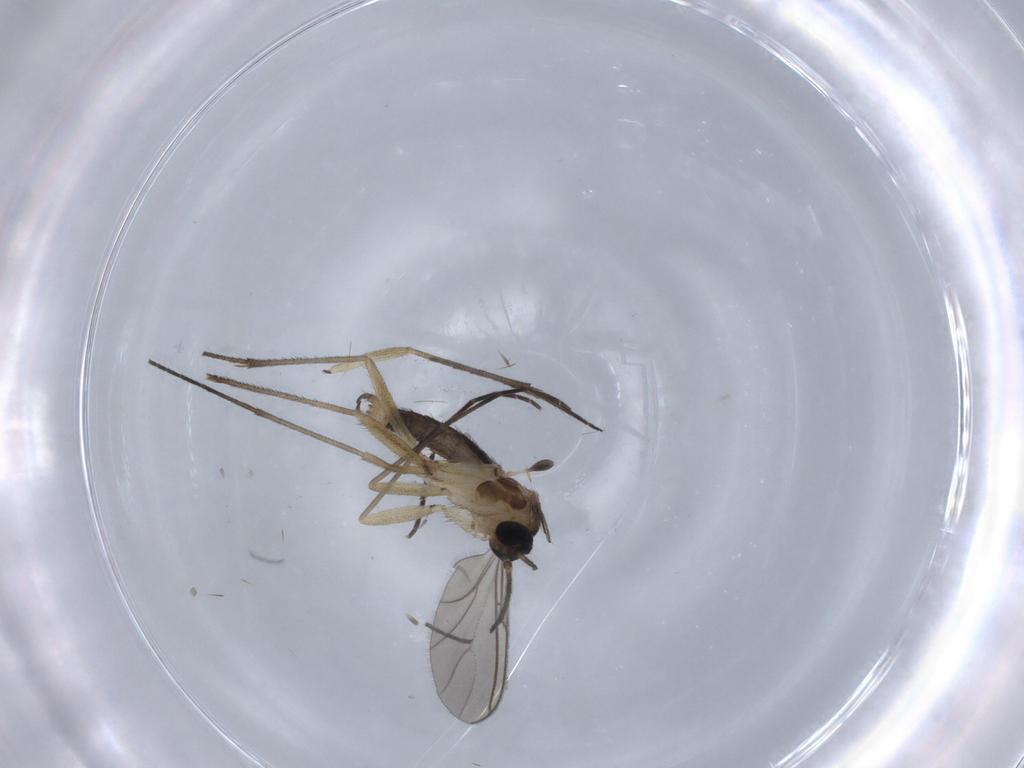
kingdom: Animalia
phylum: Arthropoda
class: Insecta
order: Diptera
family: Sciaridae
